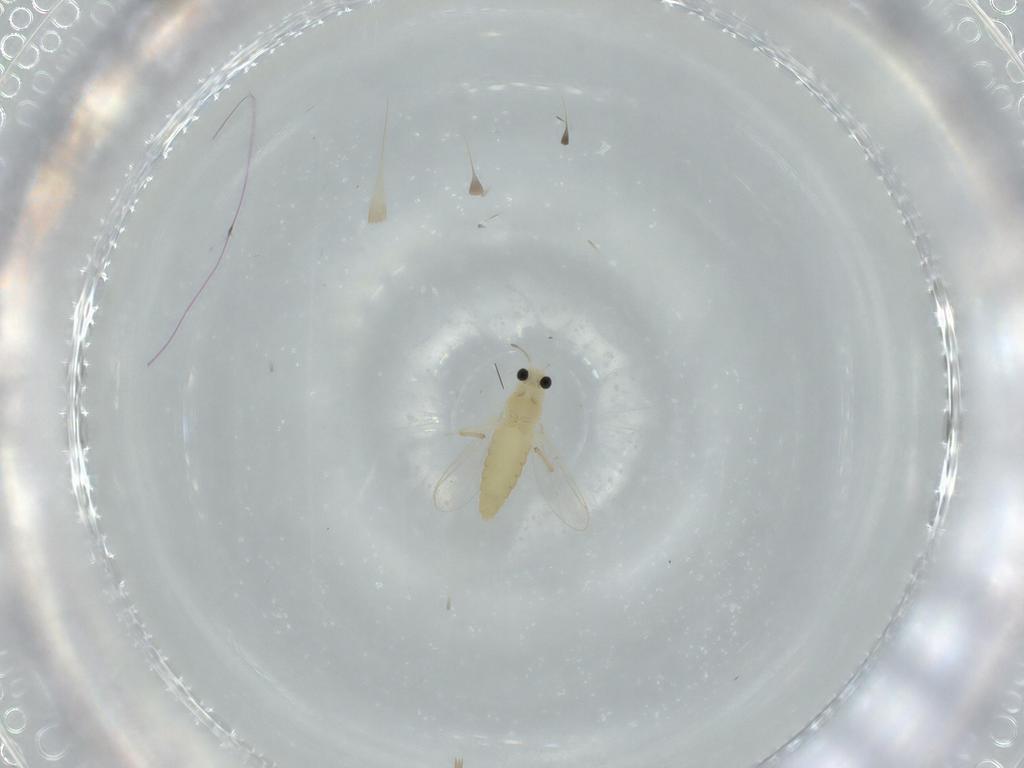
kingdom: Animalia
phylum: Arthropoda
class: Insecta
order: Diptera
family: Chironomidae
